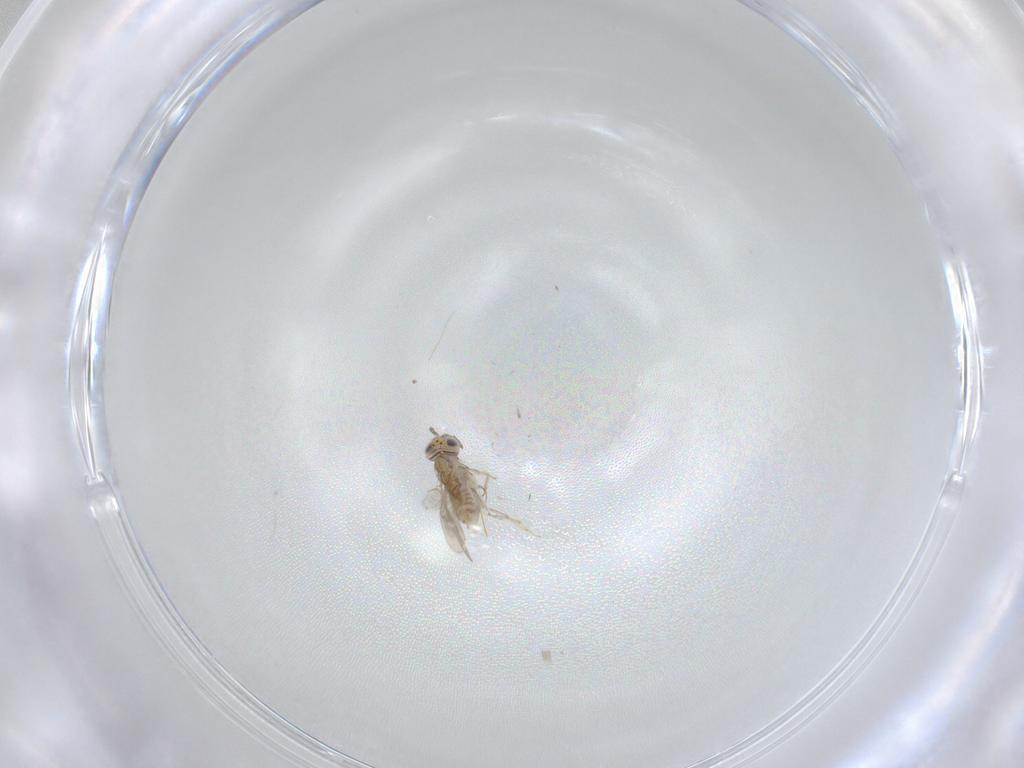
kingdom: Animalia
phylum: Arthropoda
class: Insecta
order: Hymenoptera
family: Aphelinidae
